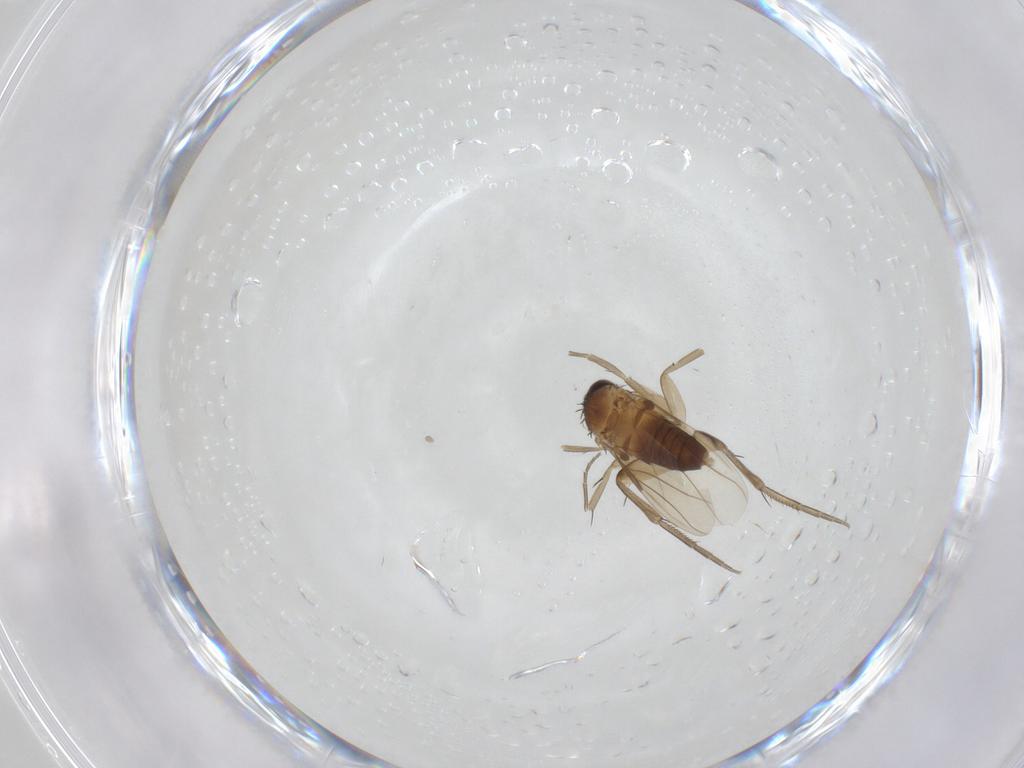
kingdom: Animalia
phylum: Arthropoda
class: Insecta
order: Diptera
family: Phoridae
